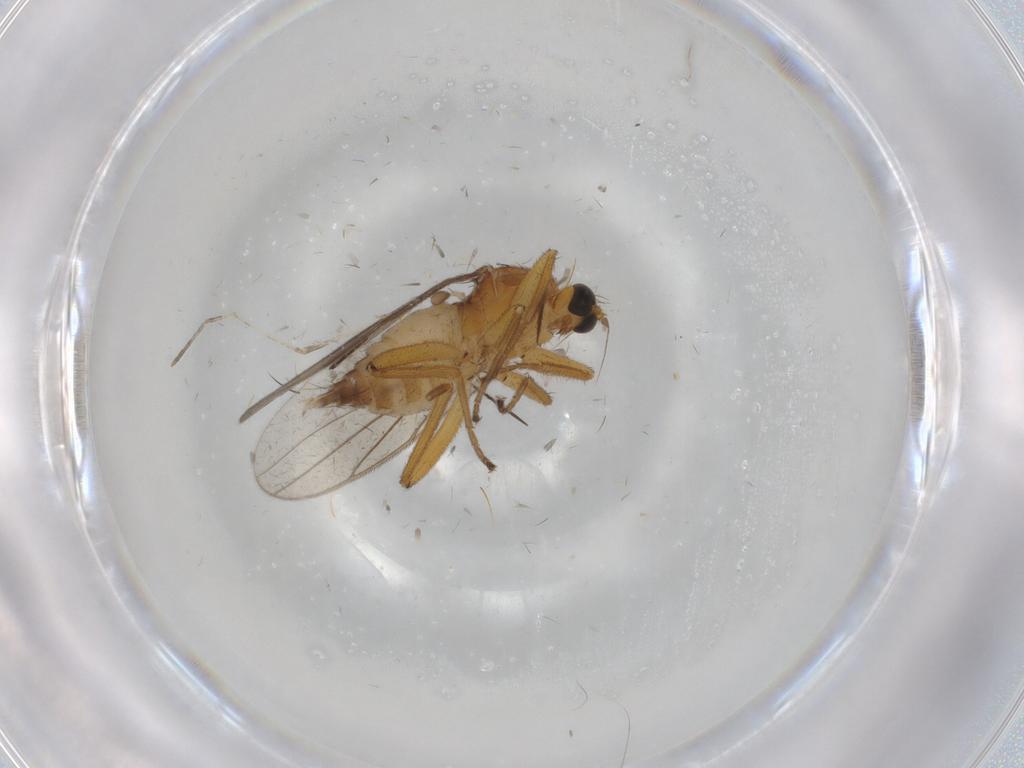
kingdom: Animalia
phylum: Arthropoda
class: Insecta
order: Diptera
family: Hybotidae
